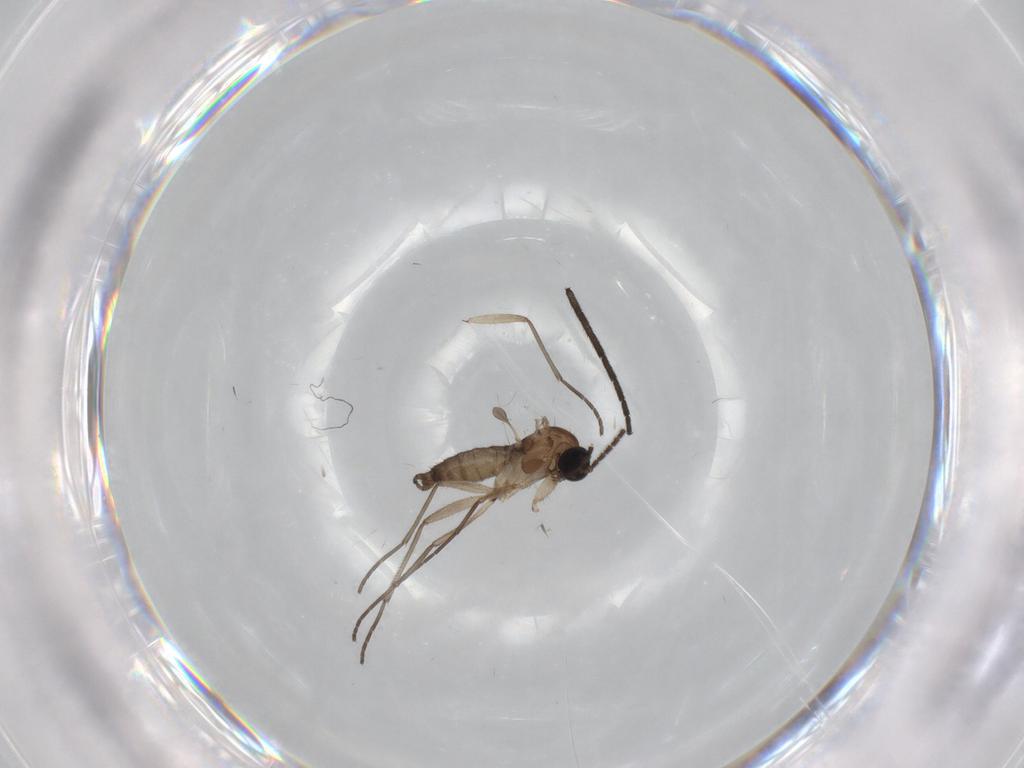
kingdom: Animalia
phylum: Arthropoda
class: Insecta
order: Diptera
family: Sciaridae
